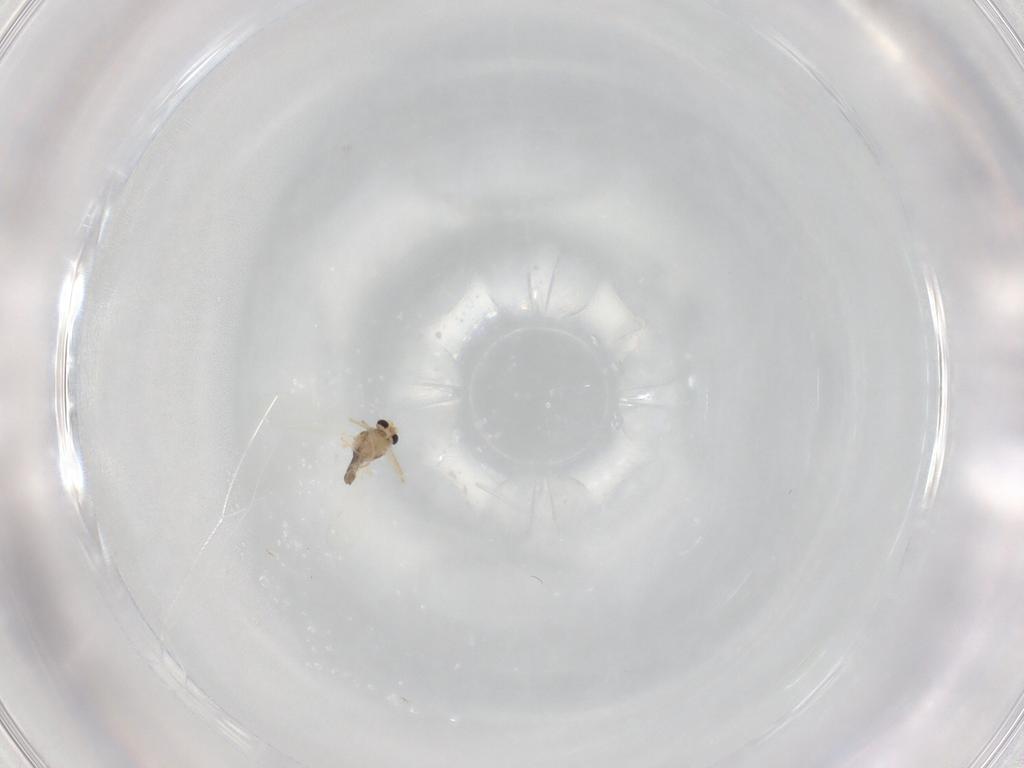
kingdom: Animalia
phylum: Arthropoda
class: Insecta
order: Diptera
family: Chironomidae
